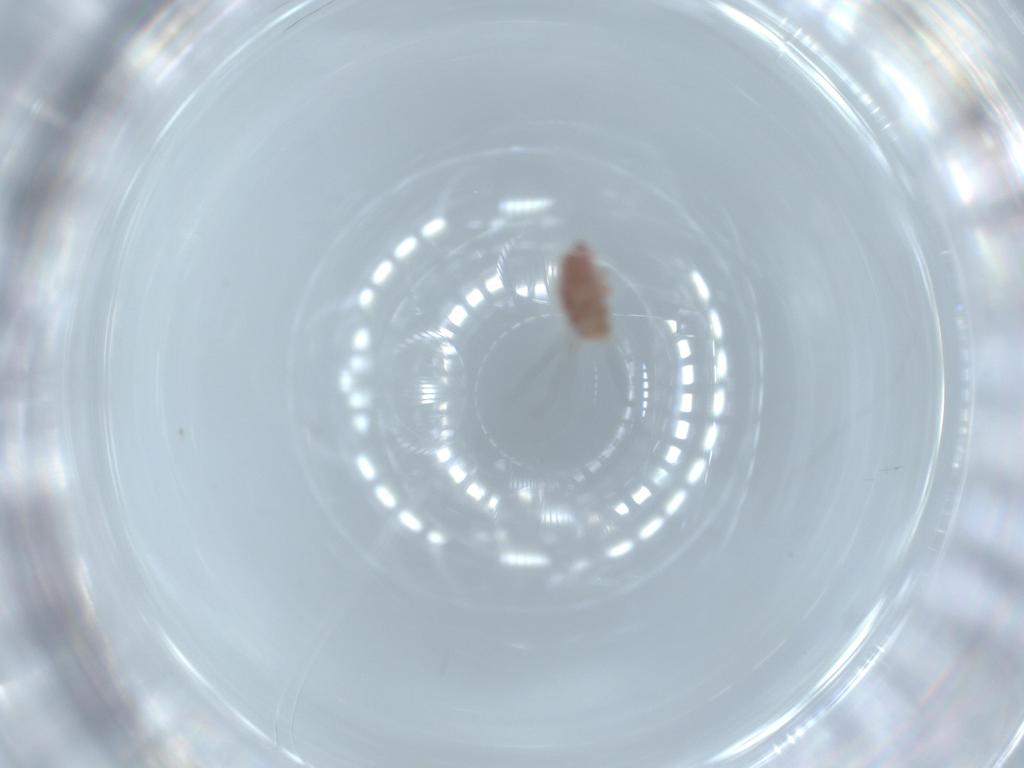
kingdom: Animalia
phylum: Arthropoda
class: Insecta
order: Neuroptera
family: Chrysopidae
